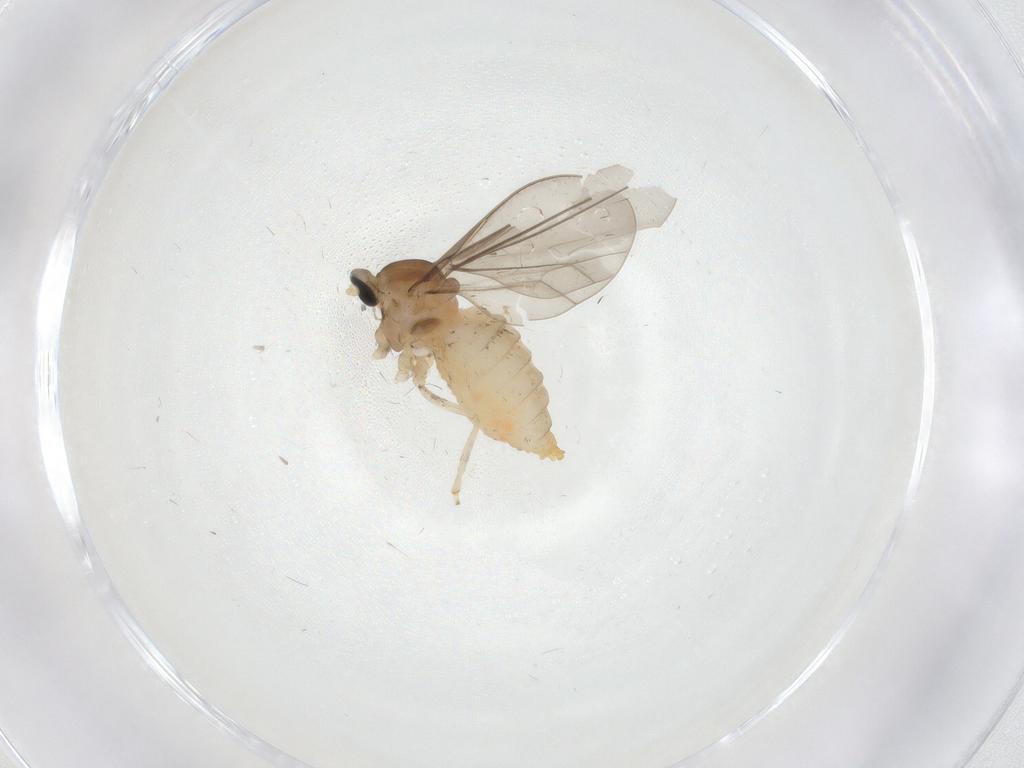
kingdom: Animalia
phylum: Arthropoda
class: Insecta
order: Diptera
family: Cecidomyiidae
